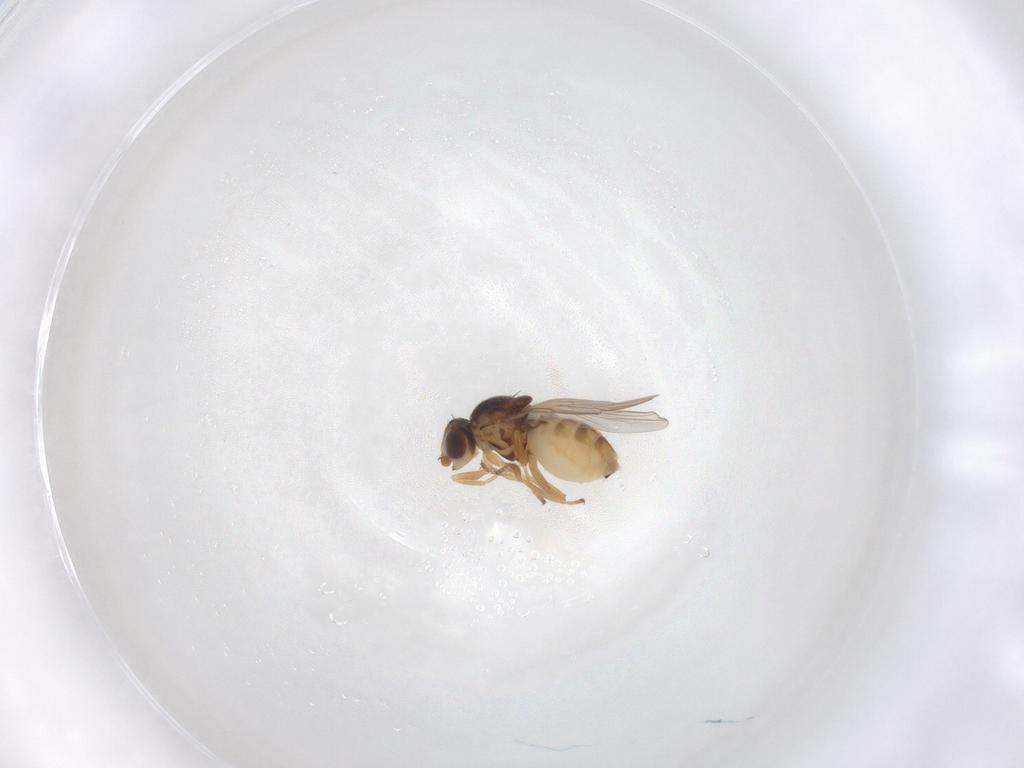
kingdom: Animalia
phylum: Arthropoda
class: Insecta
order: Diptera
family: Chloropidae
